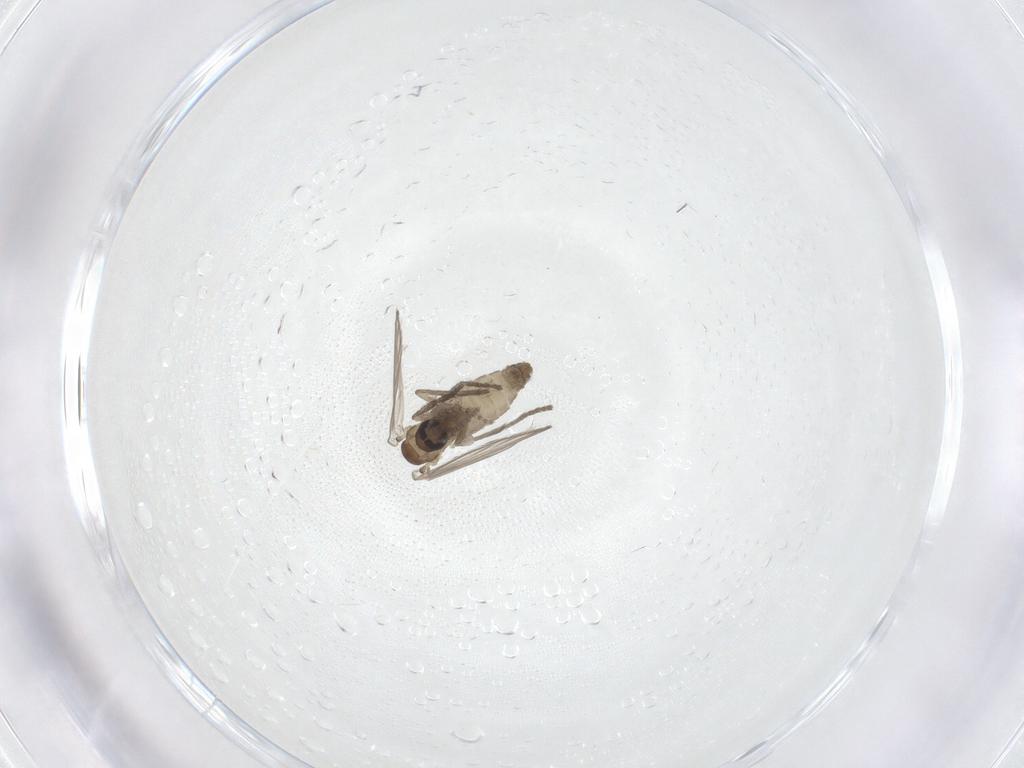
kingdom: Animalia
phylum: Arthropoda
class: Insecta
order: Diptera
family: Psychodidae
